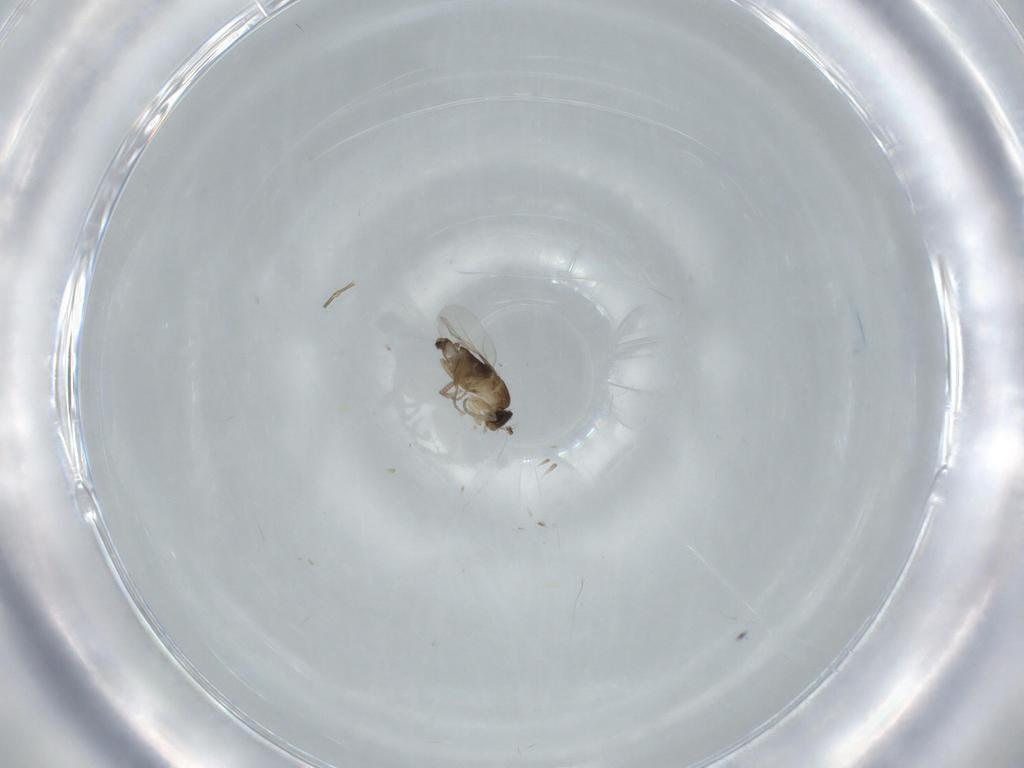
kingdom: Animalia
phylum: Arthropoda
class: Insecta
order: Diptera
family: Phoridae
